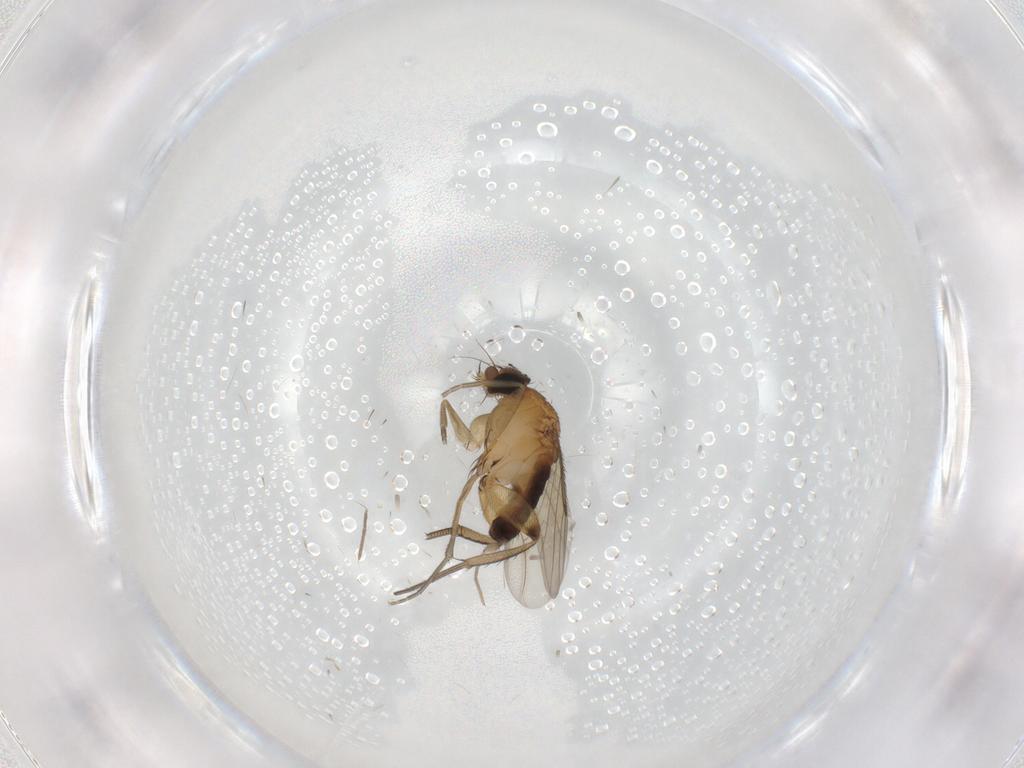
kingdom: Animalia
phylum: Arthropoda
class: Insecta
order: Diptera
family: Phoridae
